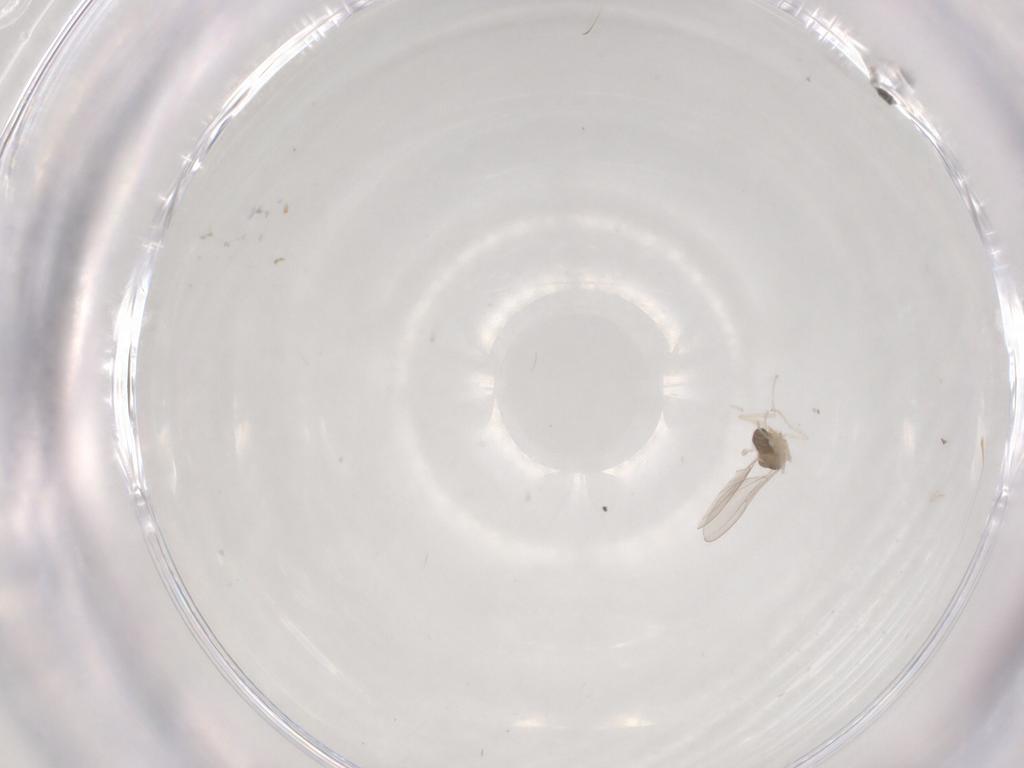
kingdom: Animalia
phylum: Arthropoda
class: Insecta
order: Diptera
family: Cecidomyiidae
